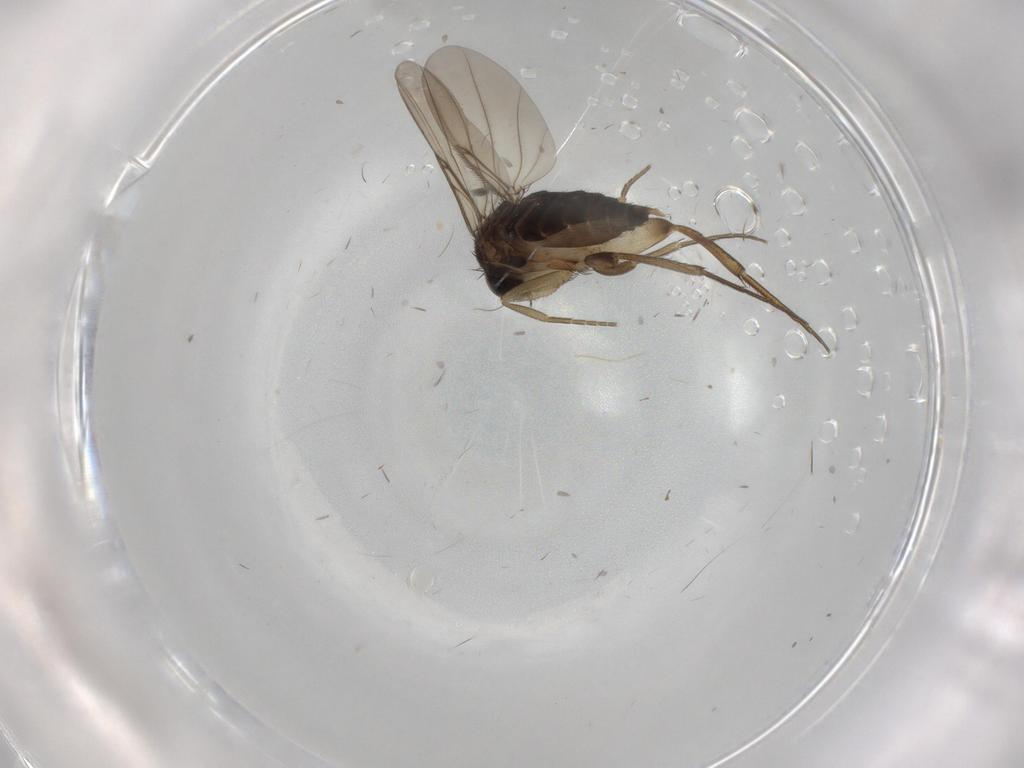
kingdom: Animalia
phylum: Arthropoda
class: Insecta
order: Diptera
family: Phoridae
